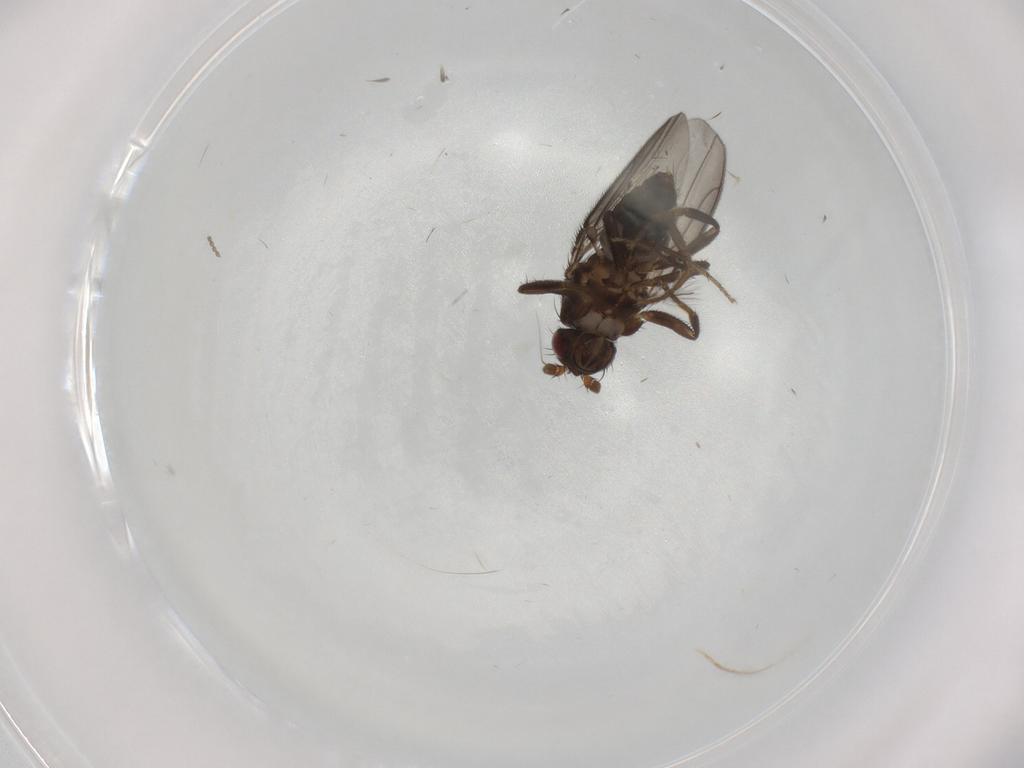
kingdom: Animalia
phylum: Arthropoda
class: Insecta
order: Diptera
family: Sphaeroceridae
